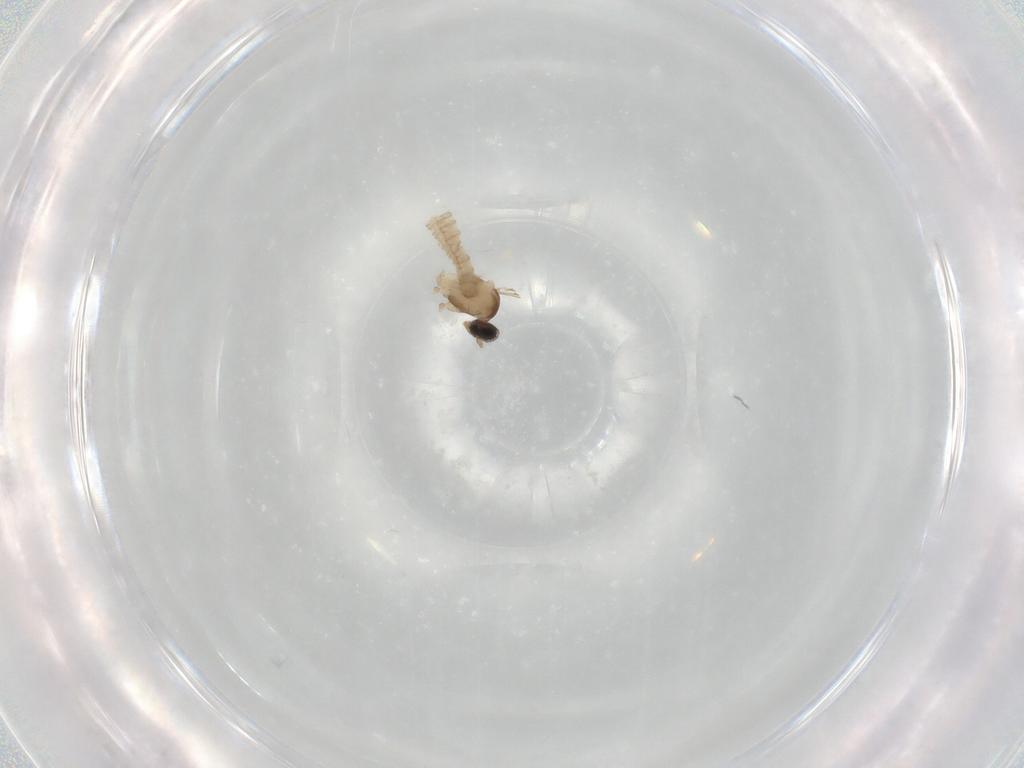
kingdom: Animalia
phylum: Arthropoda
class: Insecta
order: Diptera
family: Cecidomyiidae
